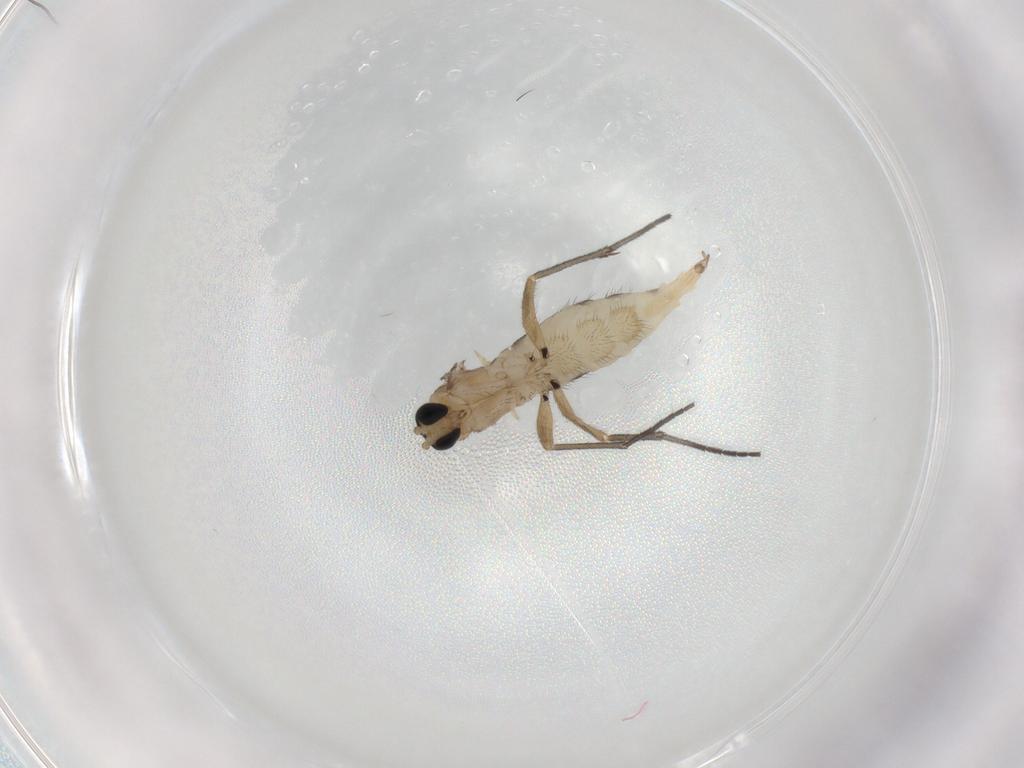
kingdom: Animalia
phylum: Arthropoda
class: Insecta
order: Diptera
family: Sciaridae
